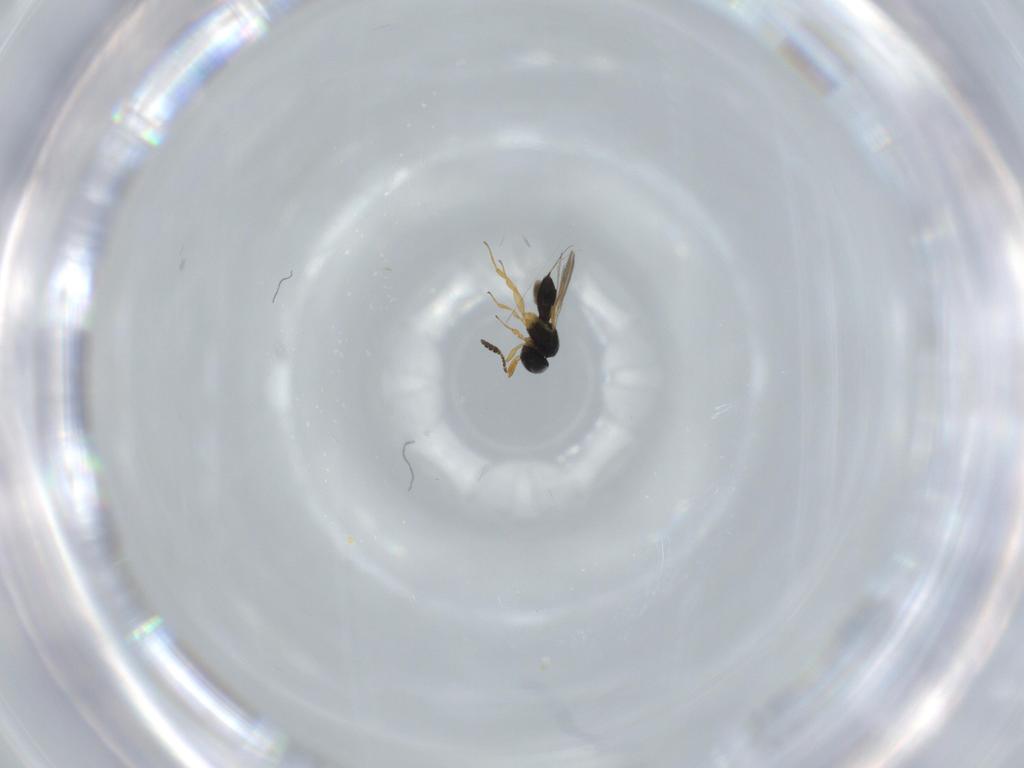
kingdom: Animalia
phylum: Arthropoda
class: Insecta
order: Hymenoptera
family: Scelionidae
